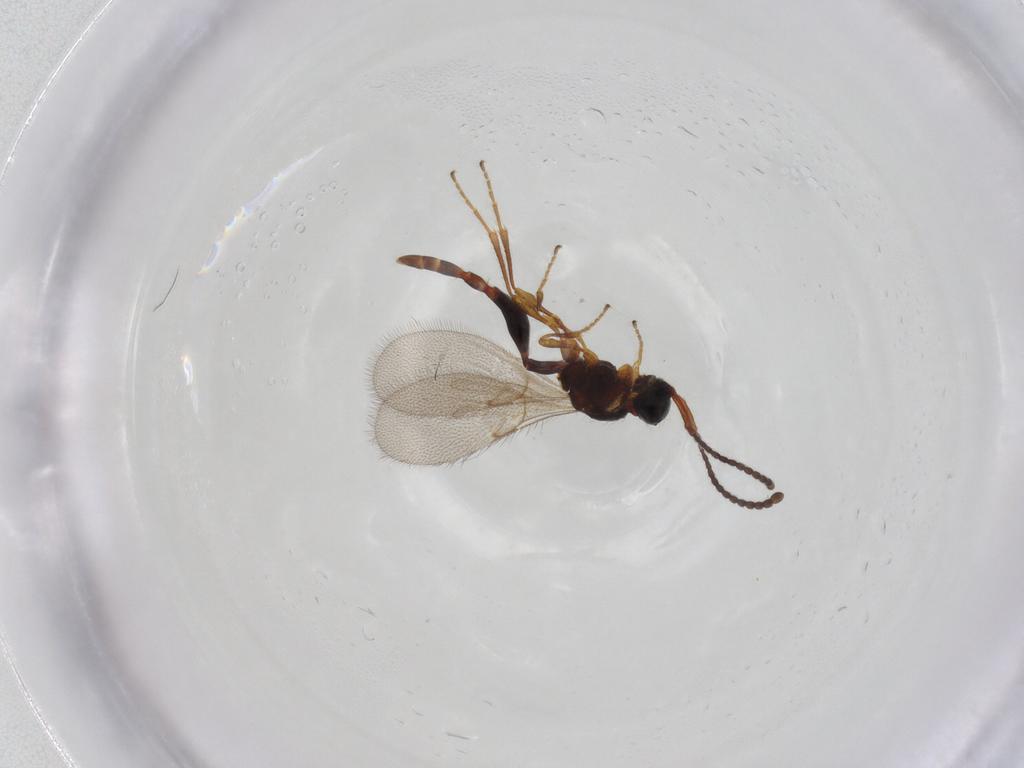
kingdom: Animalia
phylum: Arthropoda
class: Insecta
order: Hymenoptera
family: Diapriidae
